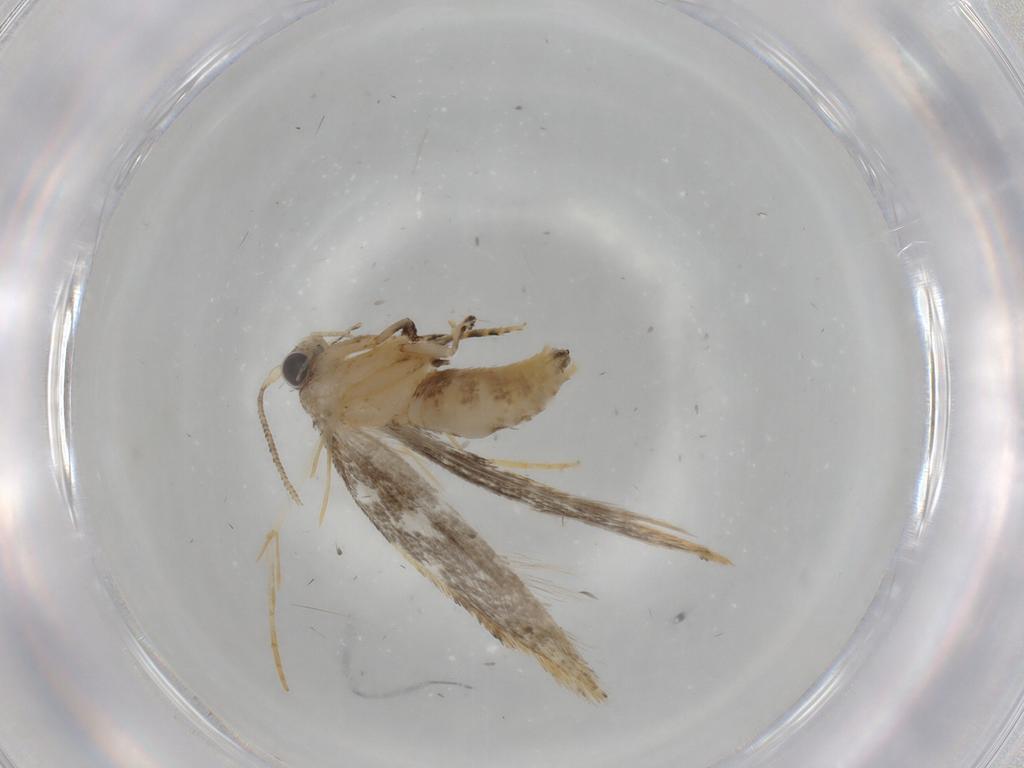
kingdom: Animalia
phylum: Arthropoda
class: Insecta
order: Lepidoptera
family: Tineidae
